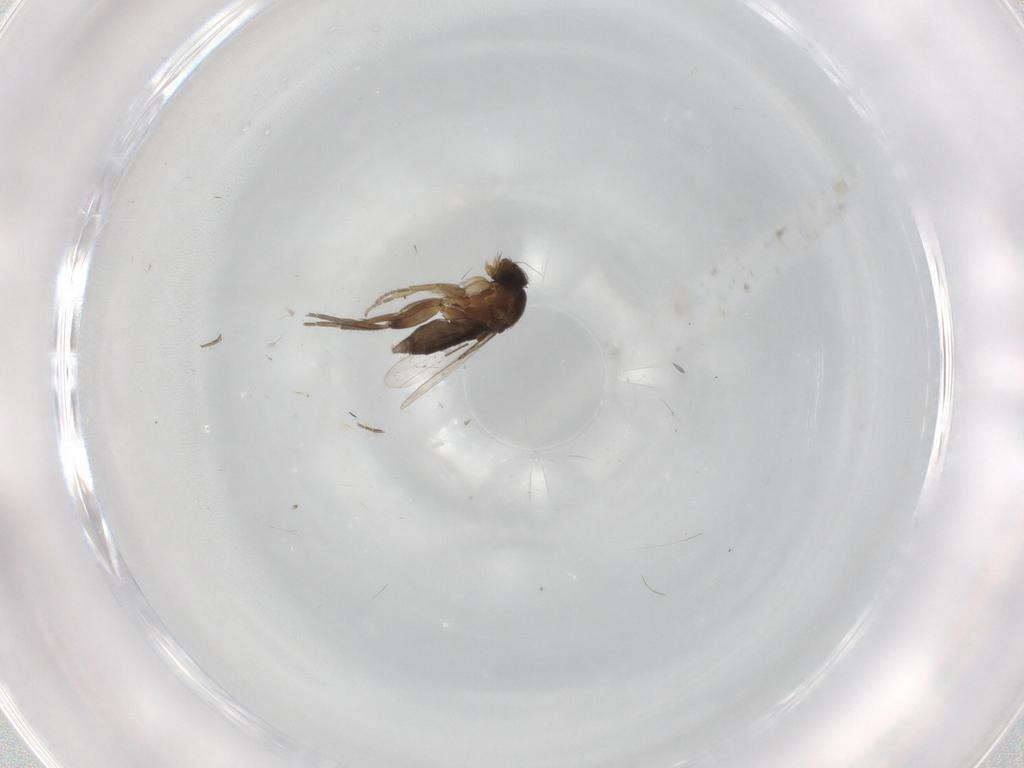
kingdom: Animalia
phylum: Arthropoda
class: Insecta
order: Diptera
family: Phoridae
